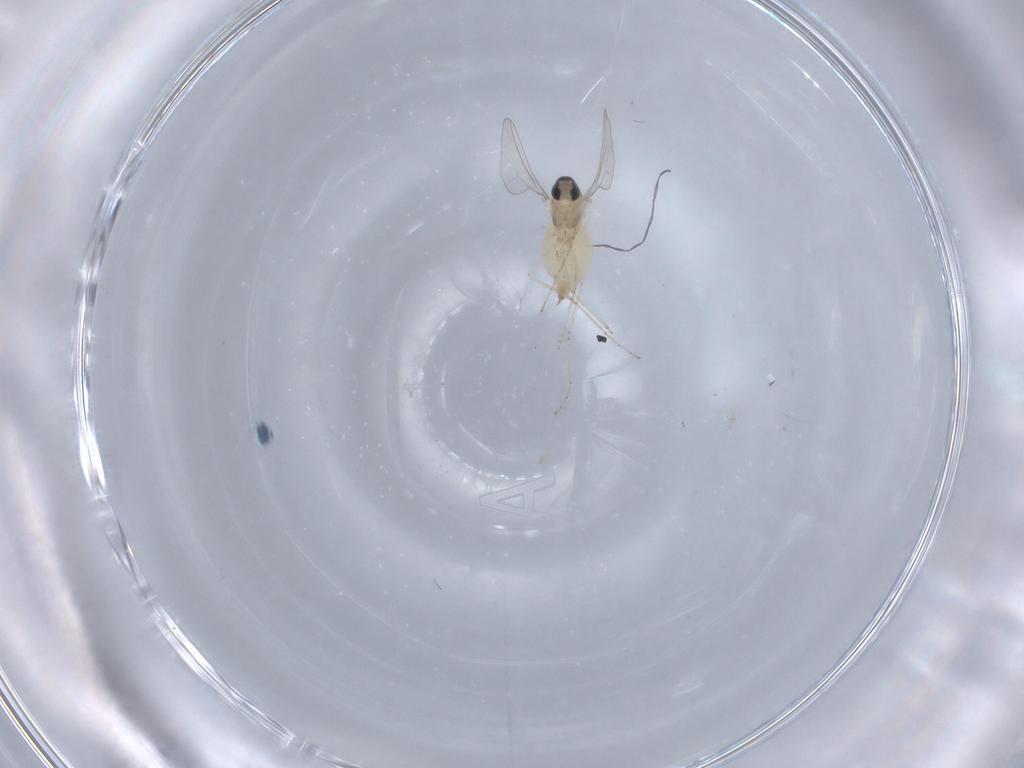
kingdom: Animalia
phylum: Arthropoda
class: Insecta
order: Diptera
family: Cecidomyiidae
